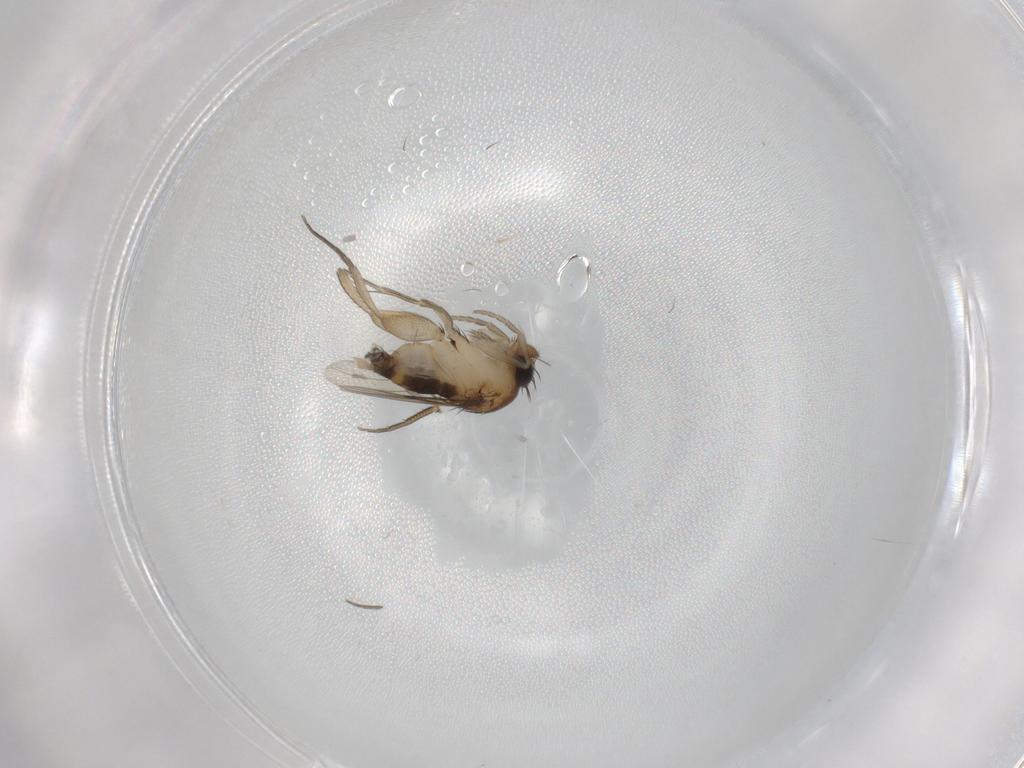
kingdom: Animalia
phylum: Arthropoda
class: Insecta
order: Diptera
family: Phoridae
